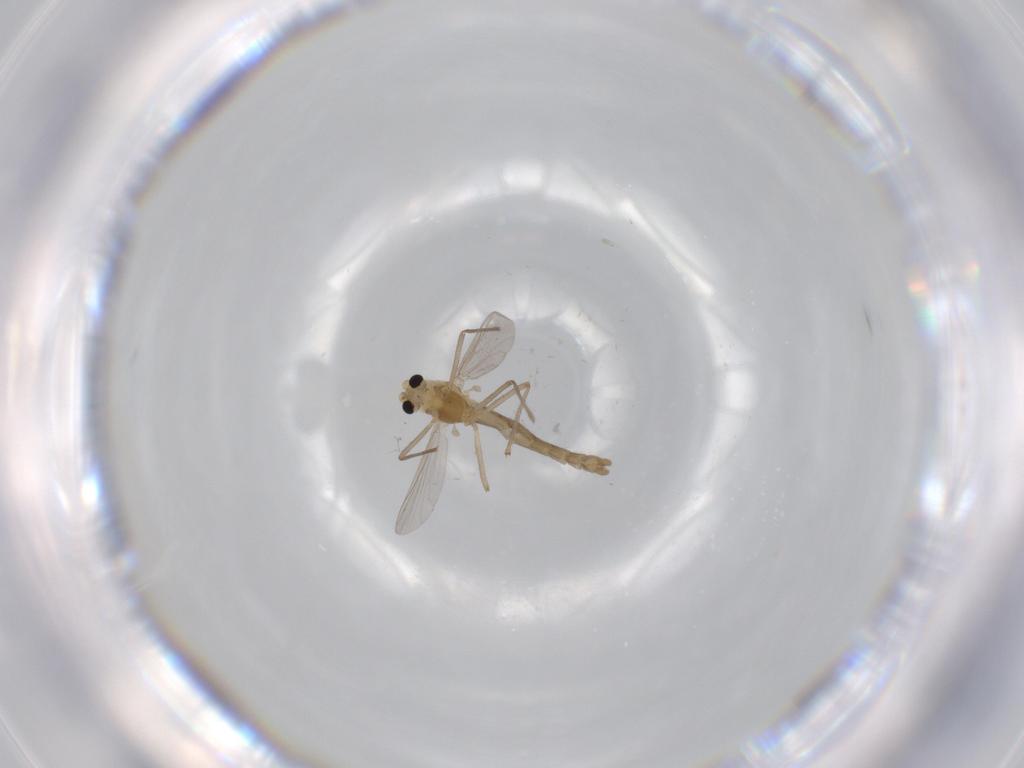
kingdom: Animalia
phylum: Arthropoda
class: Insecta
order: Diptera
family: Chironomidae
